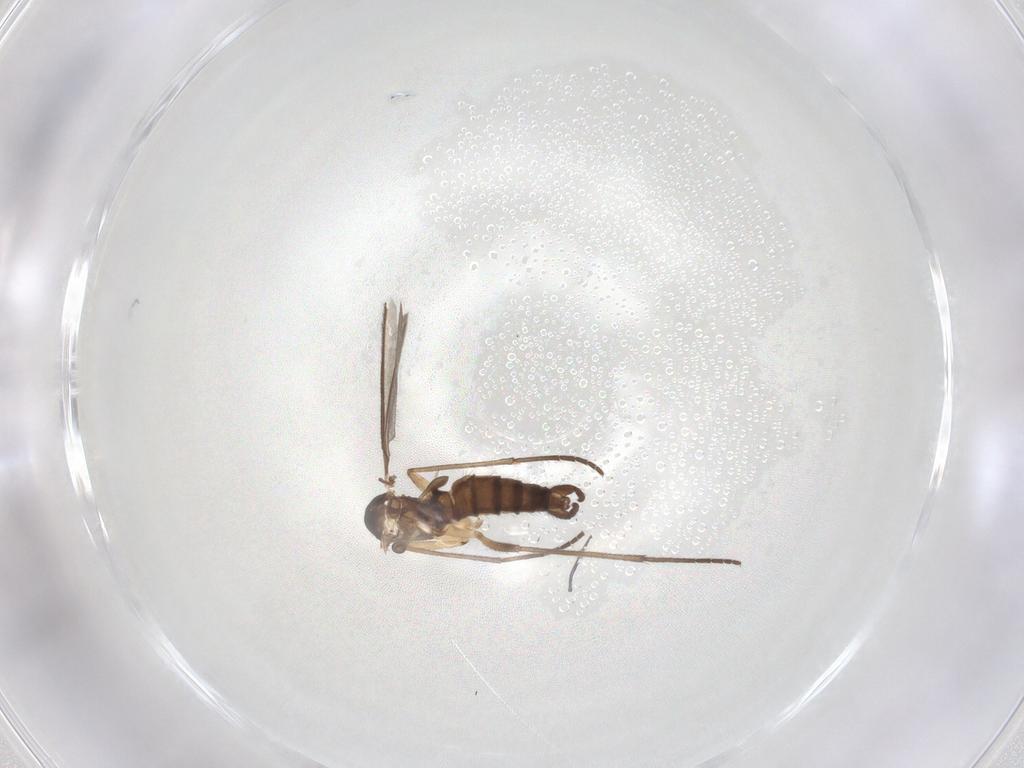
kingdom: Animalia
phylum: Arthropoda
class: Insecta
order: Diptera
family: Sciaridae
